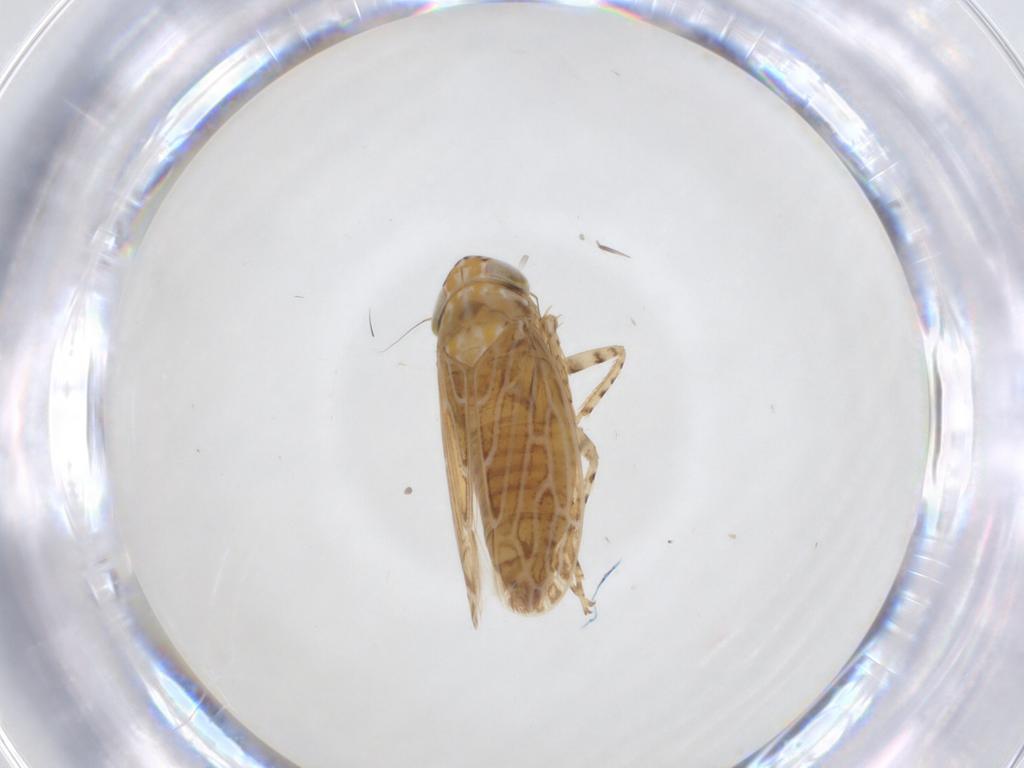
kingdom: Animalia
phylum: Arthropoda
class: Insecta
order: Hemiptera
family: Cicadellidae
